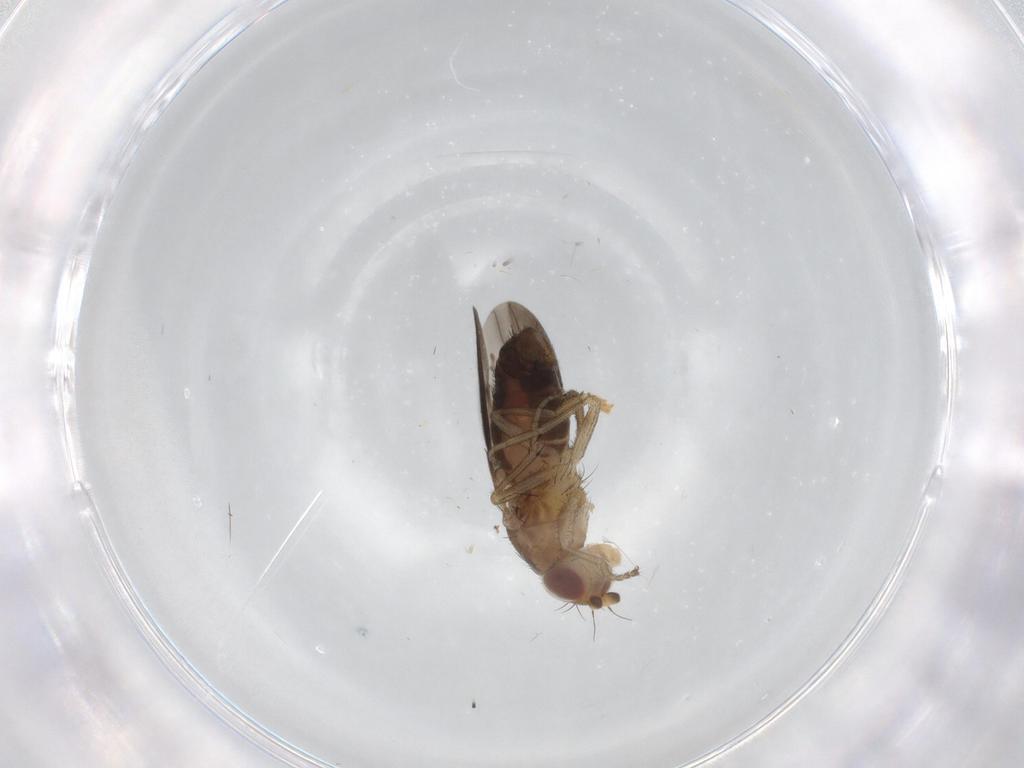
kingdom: Animalia
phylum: Arthropoda
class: Insecta
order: Diptera
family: Heleomyzidae
